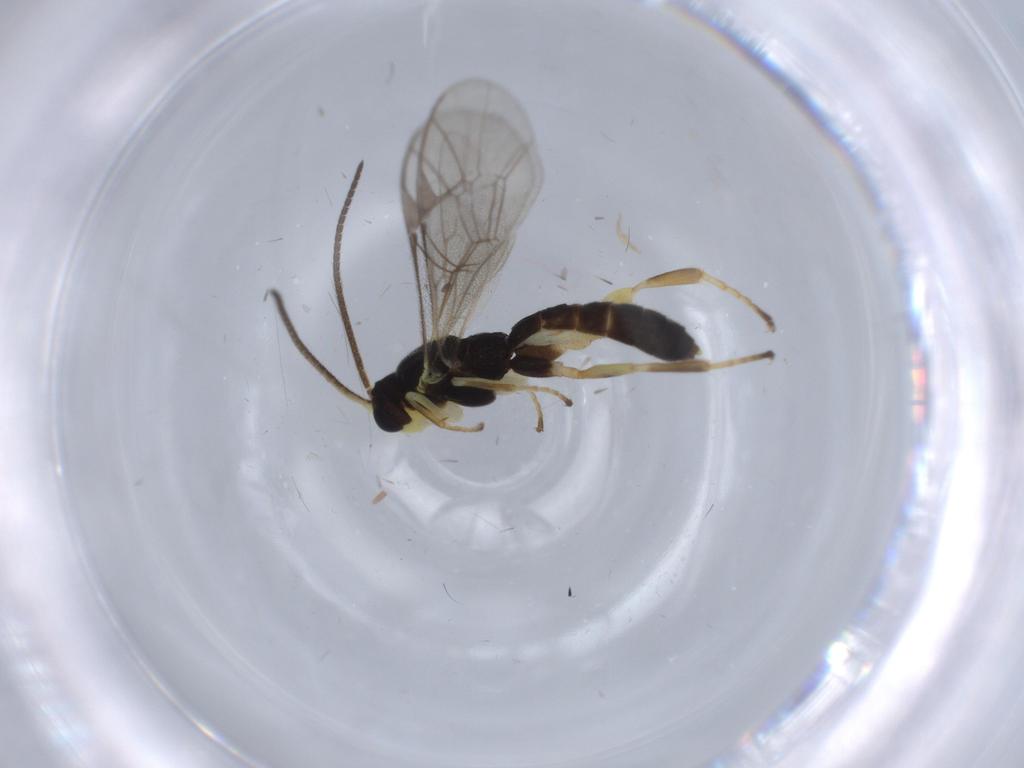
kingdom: Animalia
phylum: Arthropoda
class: Insecta
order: Hymenoptera
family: Ichneumonidae
